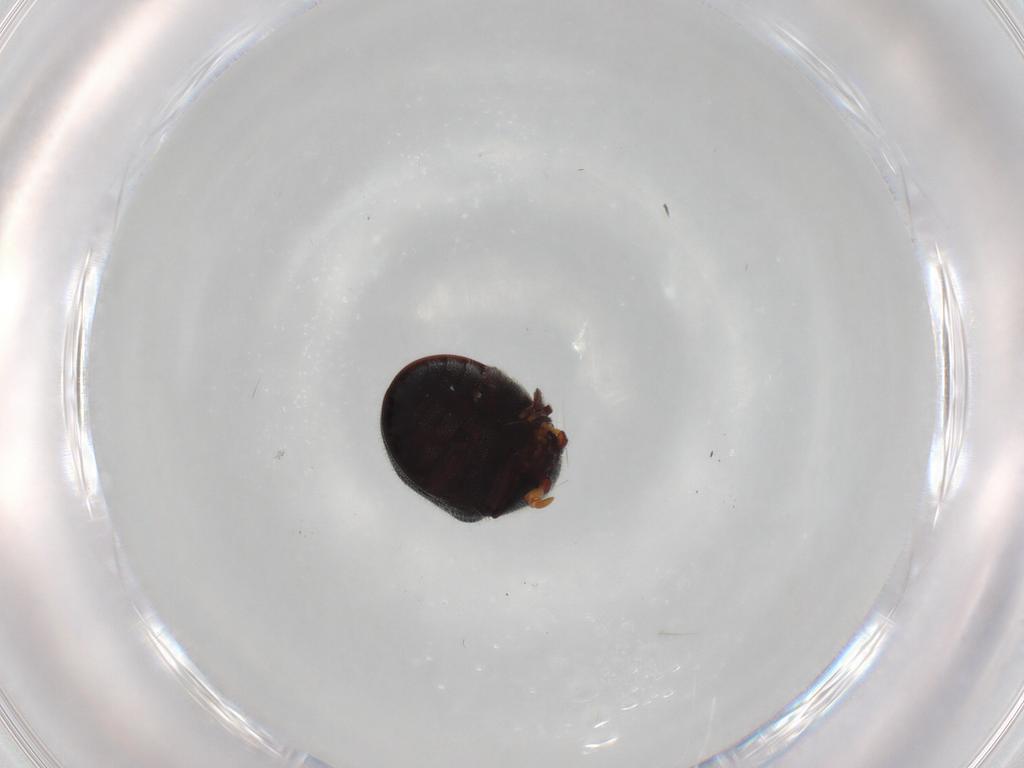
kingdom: Animalia
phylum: Arthropoda
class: Insecta
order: Coleoptera
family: Ptinidae
